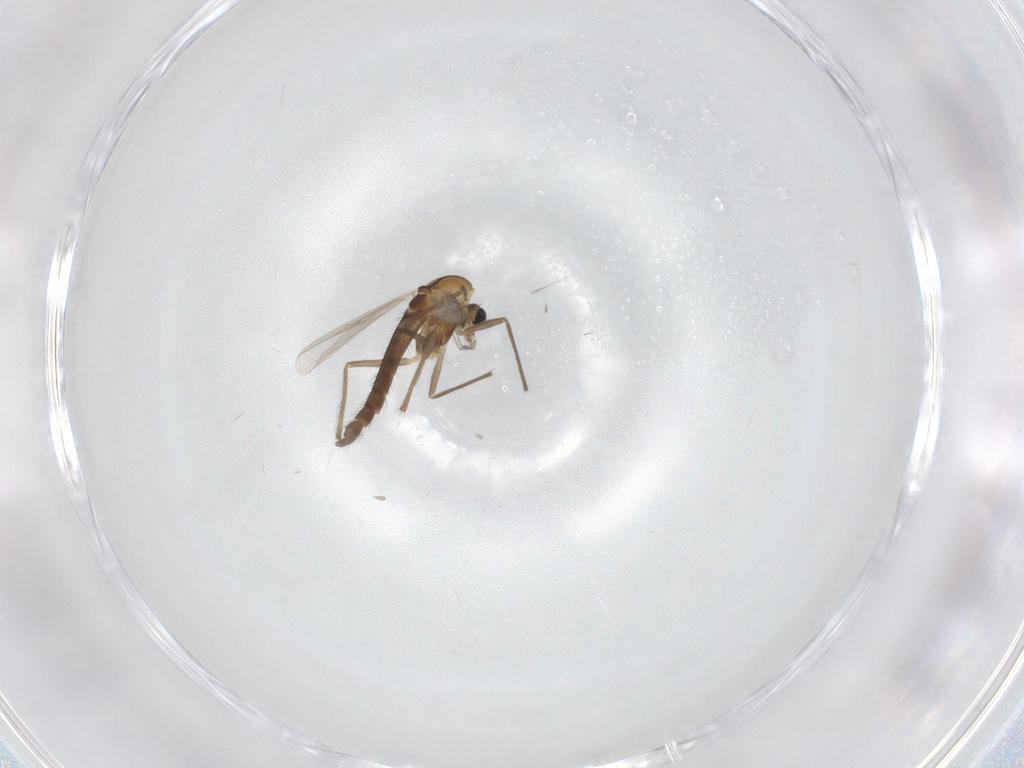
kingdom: Animalia
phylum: Arthropoda
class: Insecta
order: Diptera
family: Chironomidae
